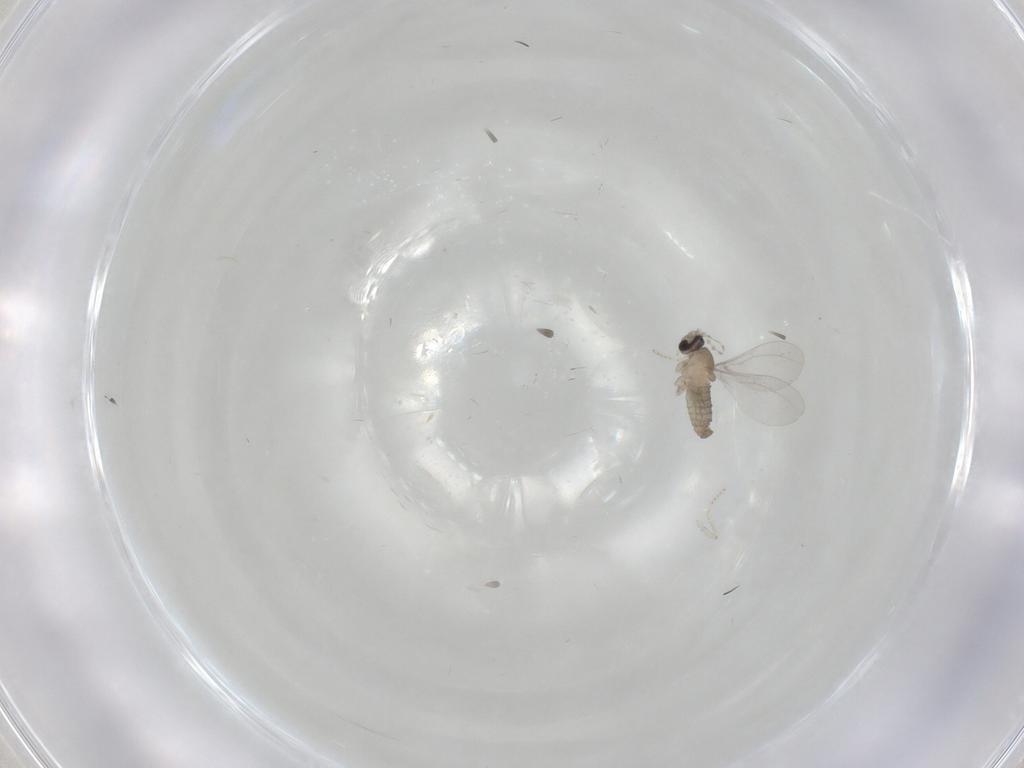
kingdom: Animalia
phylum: Arthropoda
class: Insecta
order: Diptera
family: Cecidomyiidae
